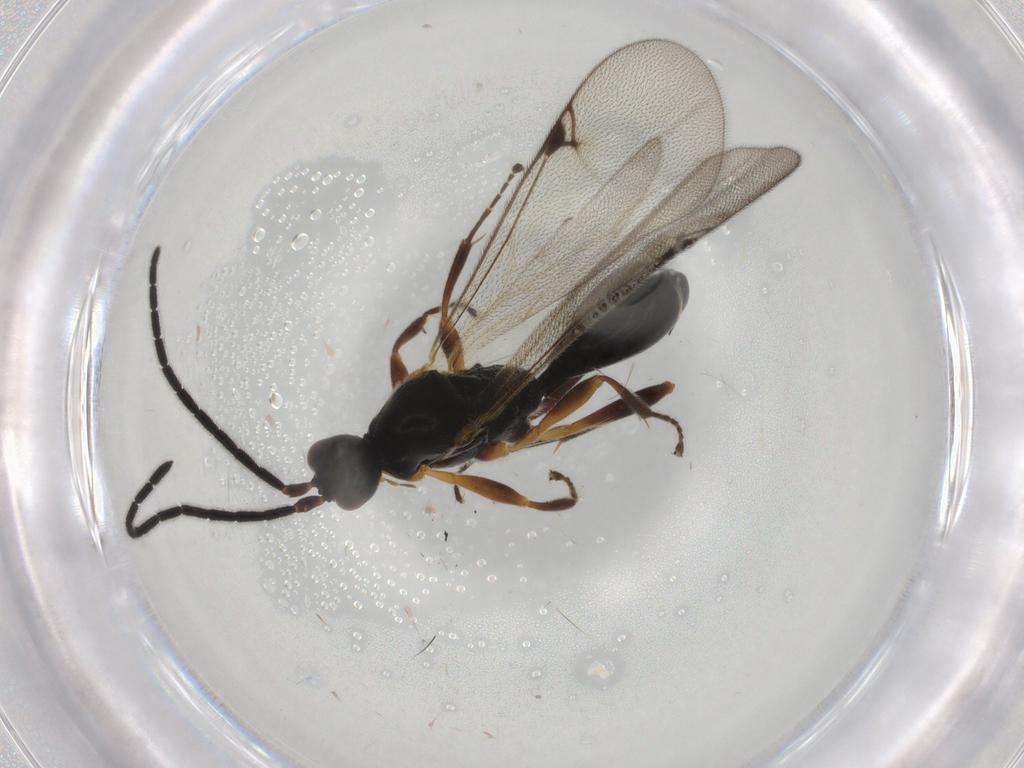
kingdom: Animalia
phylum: Arthropoda
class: Insecta
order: Hymenoptera
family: Proctotrupidae
